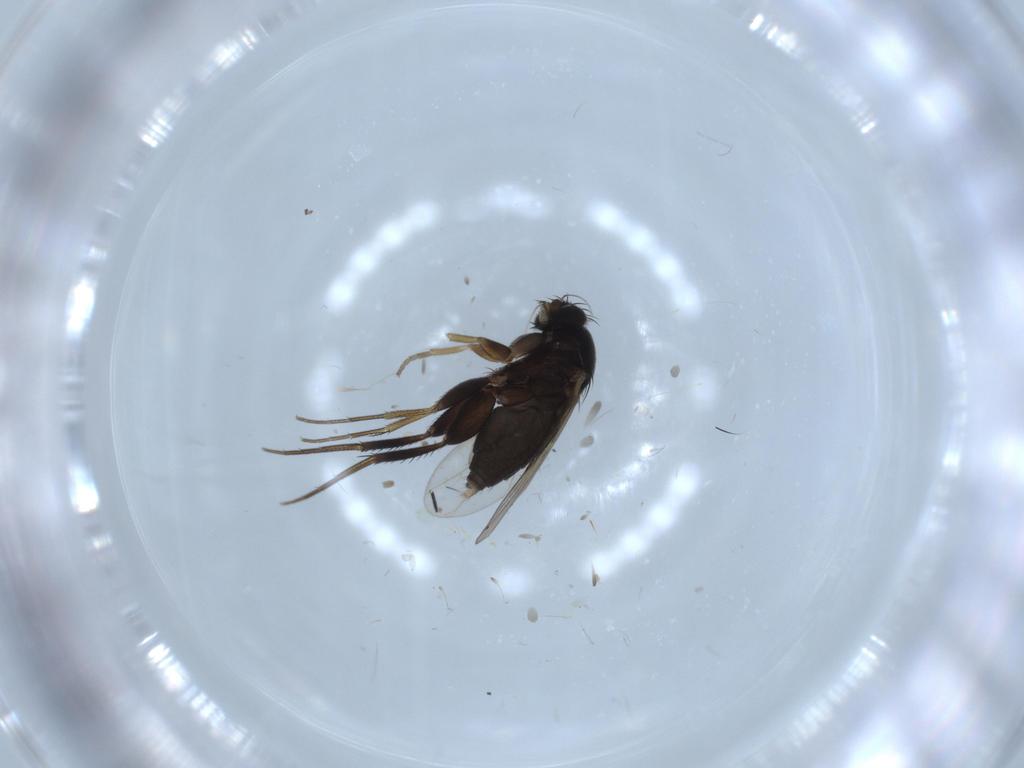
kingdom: Animalia
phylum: Arthropoda
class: Insecta
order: Diptera
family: Phoridae
